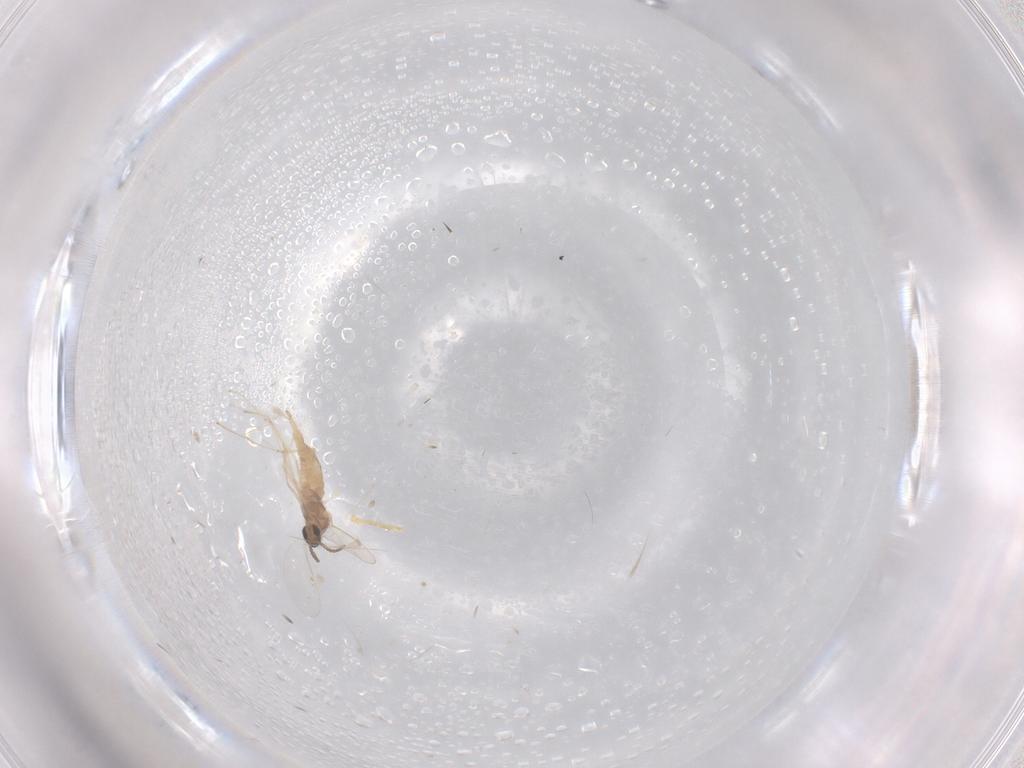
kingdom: Animalia
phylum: Arthropoda
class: Insecta
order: Diptera
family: Cecidomyiidae
